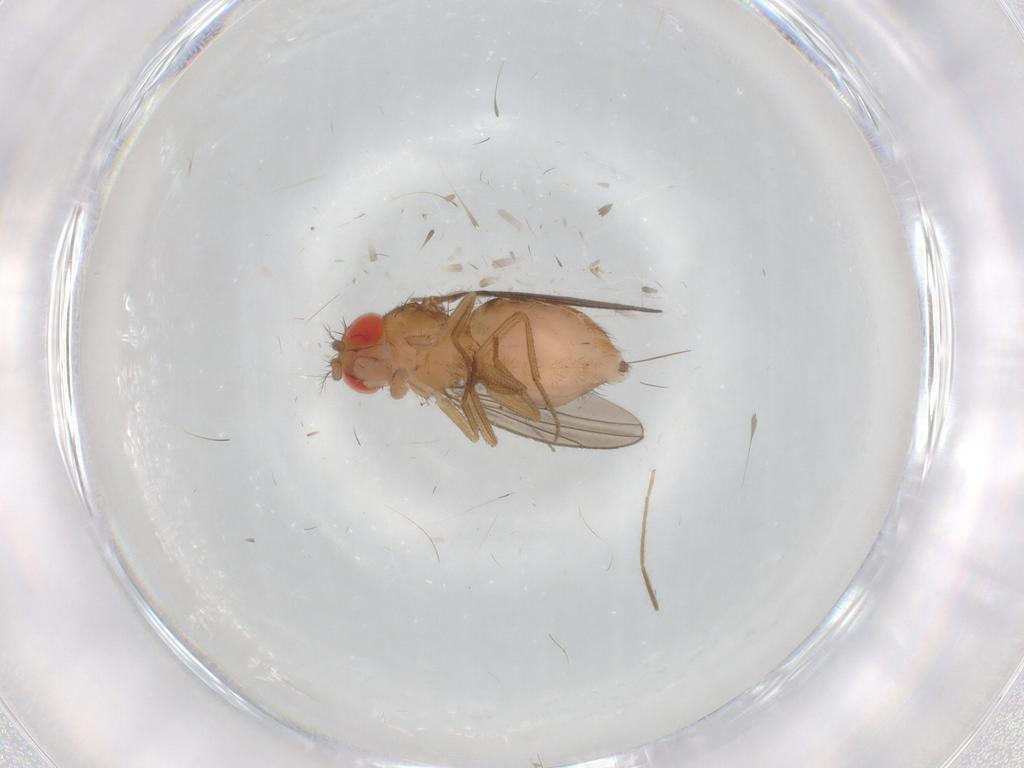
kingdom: Animalia
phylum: Arthropoda
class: Insecta
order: Diptera
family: Drosophilidae
